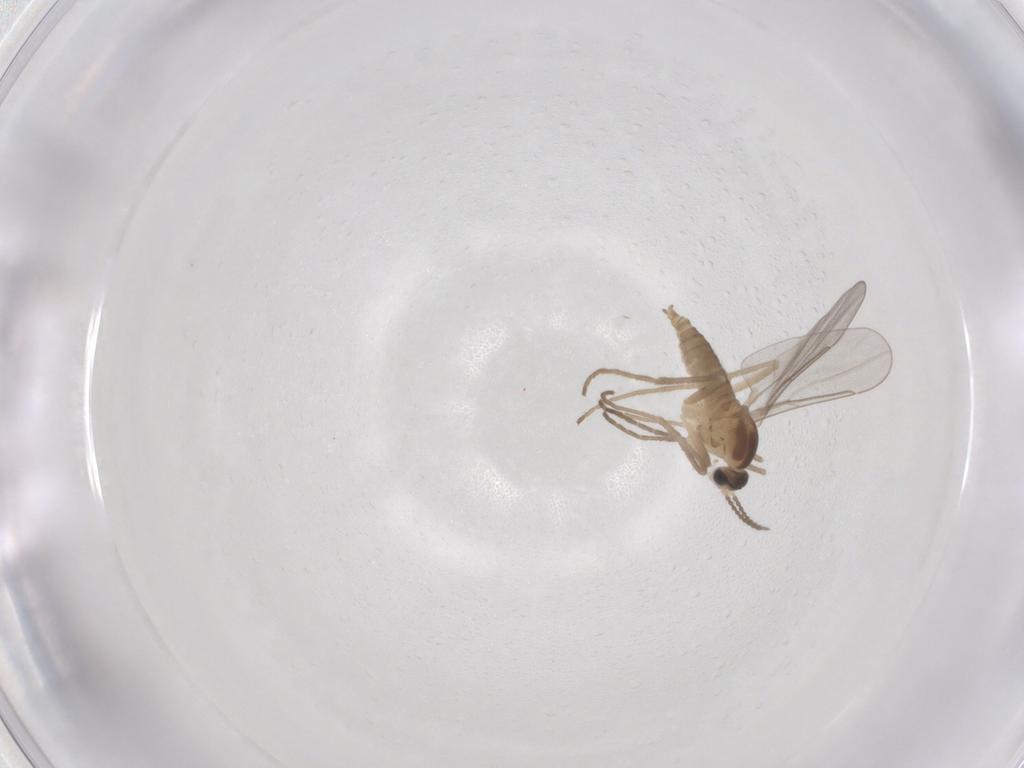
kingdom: Animalia
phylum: Arthropoda
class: Insecta
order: Diptera
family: Cecidomyiidae
